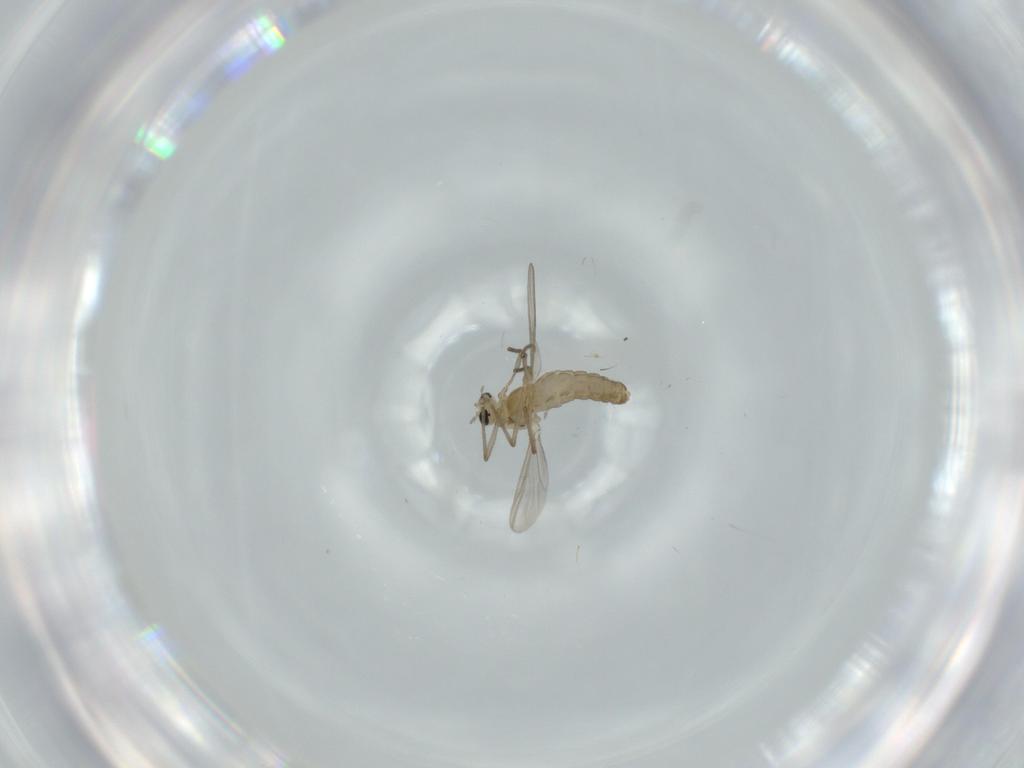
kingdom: Animalia
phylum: Arthropoda
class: Insecta
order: Diptera
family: Chironomidae
